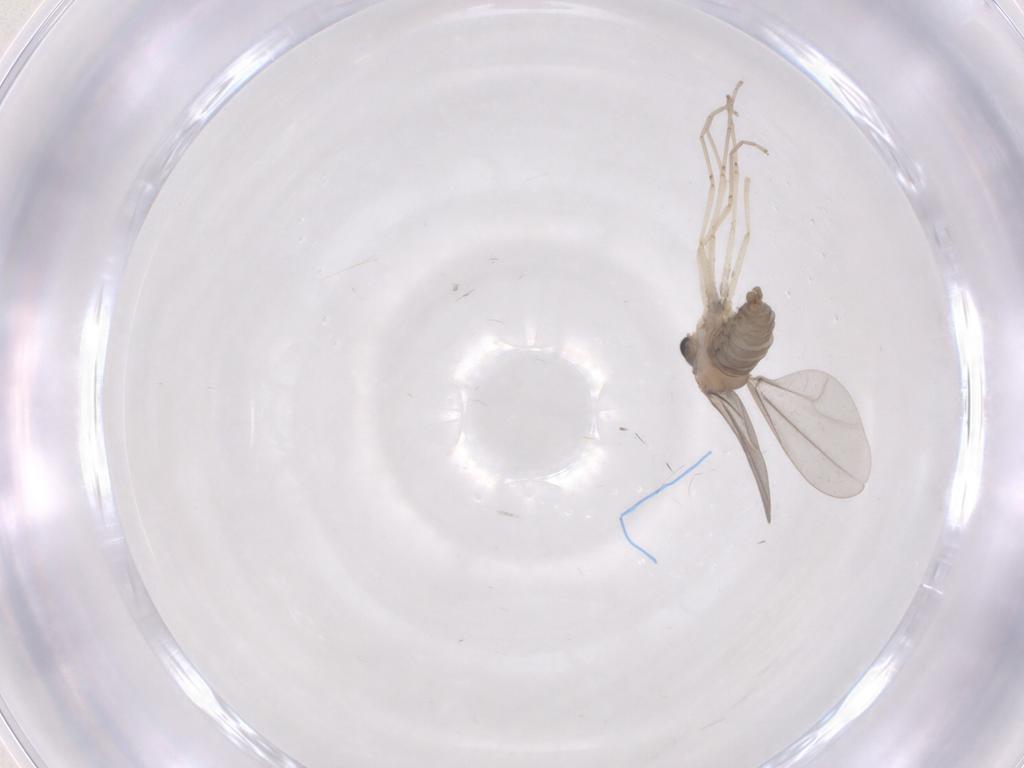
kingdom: Animalia
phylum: Arthropoda
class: Insecta
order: Diptera
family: Cecidomyiidae
